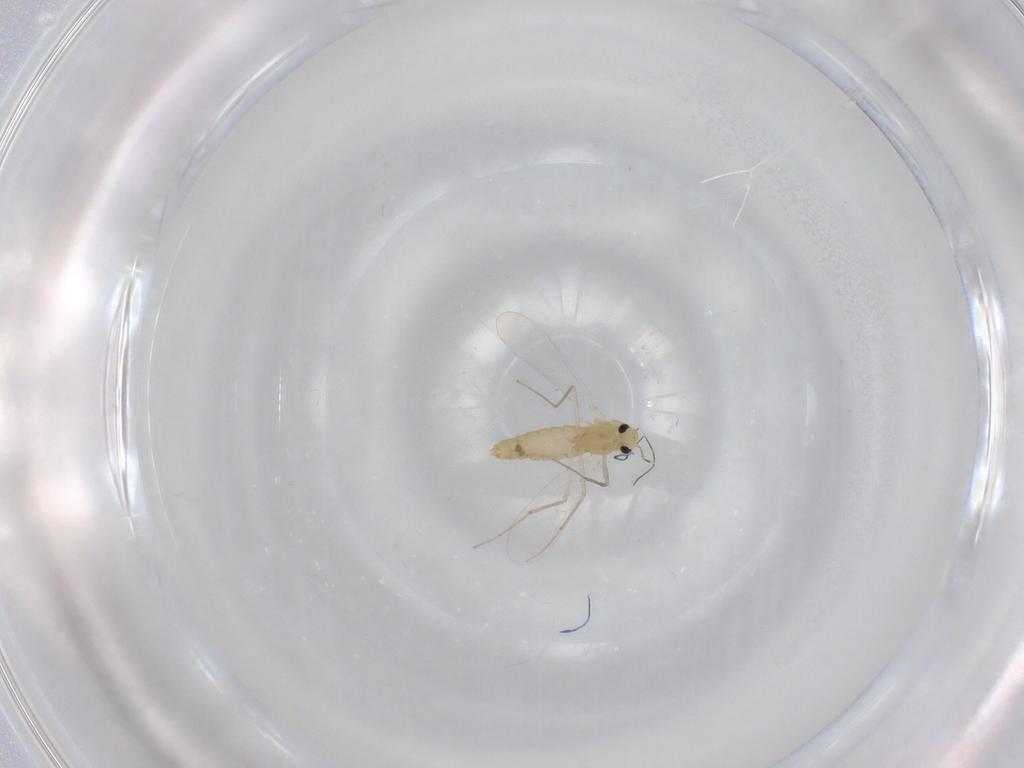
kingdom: Animalia
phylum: Arthropoda
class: Insecta
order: Diptera
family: Chironomidae
